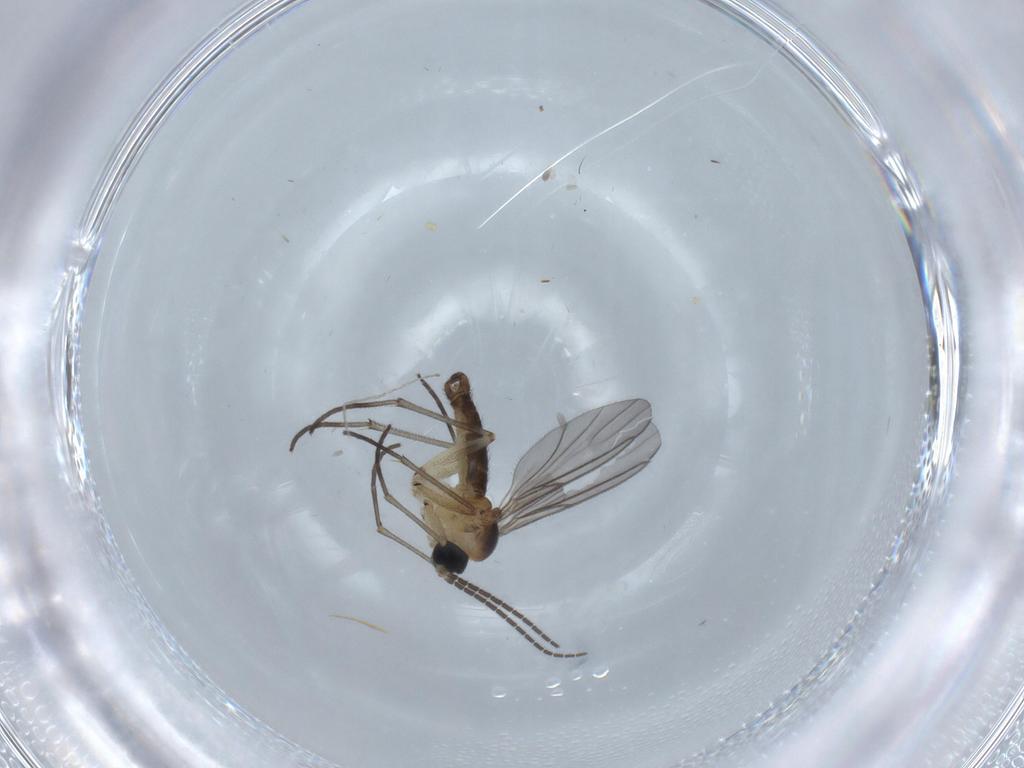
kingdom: Animalia
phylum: Arthropoda
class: Insecta
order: Diptera
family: Sciaridae
